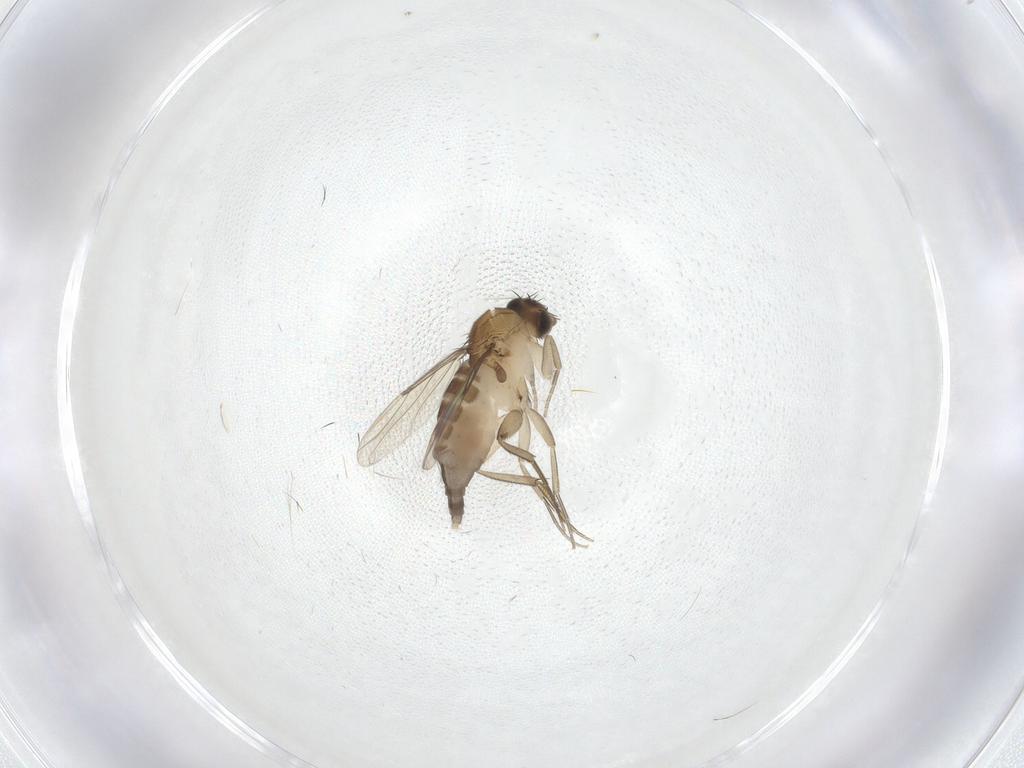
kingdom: Animalia
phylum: Arthropoda
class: Insecta
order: Diptera
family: Phoridae
